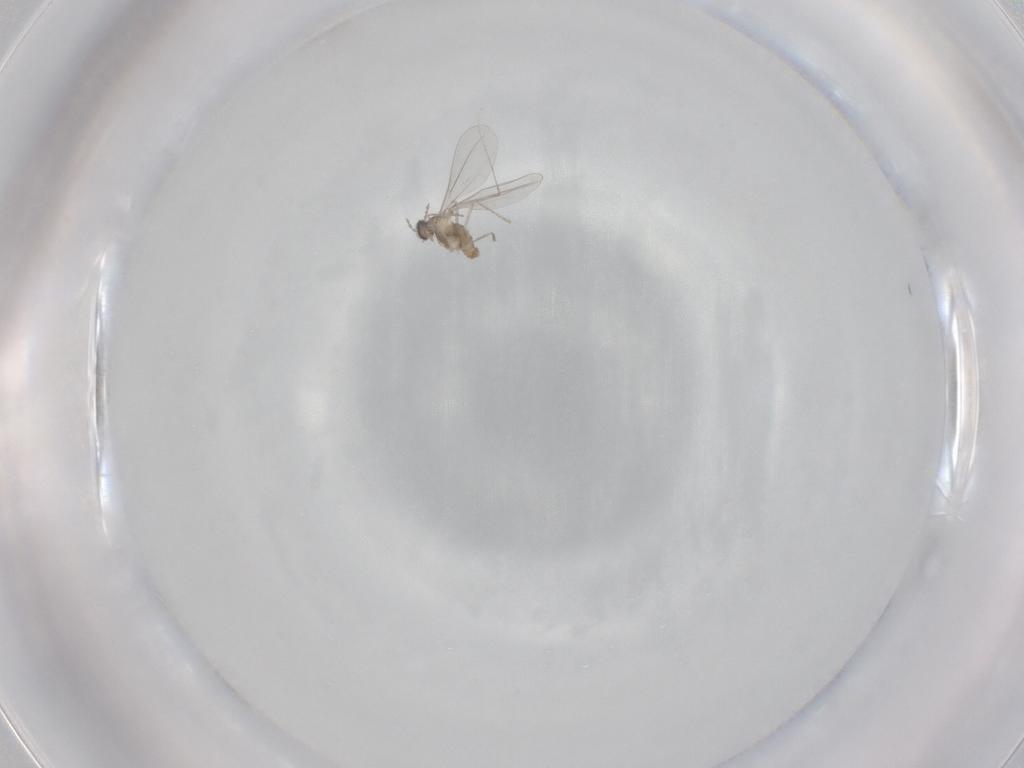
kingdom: Animalia
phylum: Arthropoda
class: Insecta
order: Diptera
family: Cecidomyiidae
